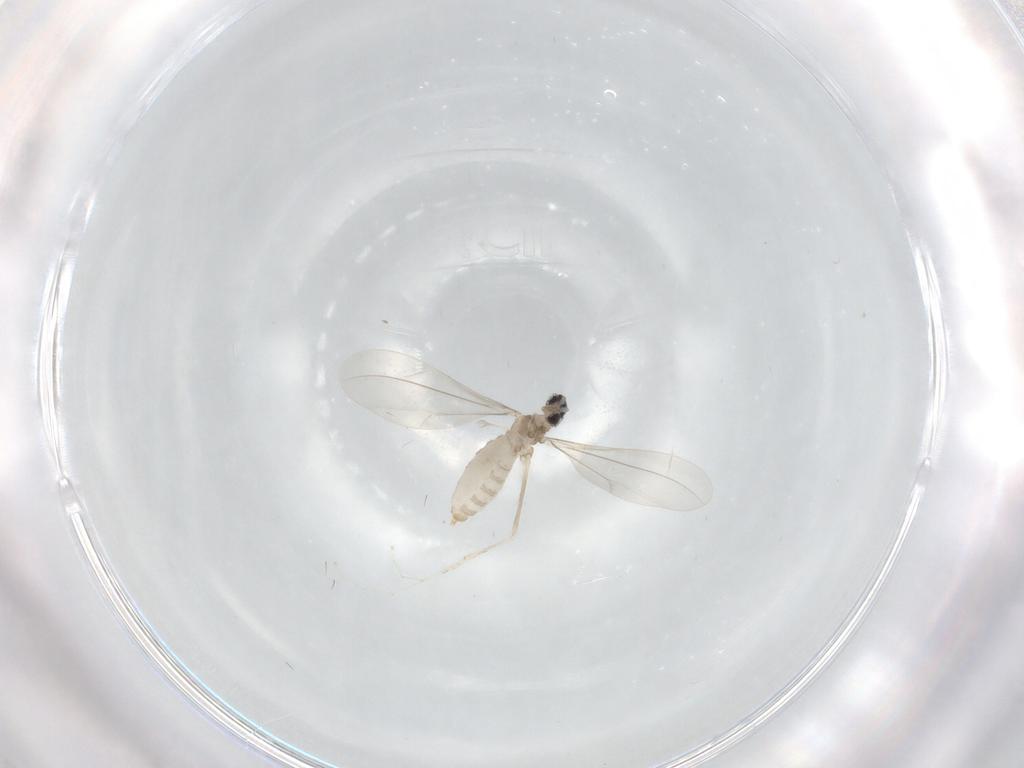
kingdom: Animalia
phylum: Arthropoda
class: Insecta
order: Diptera
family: Cecidomyiidae
